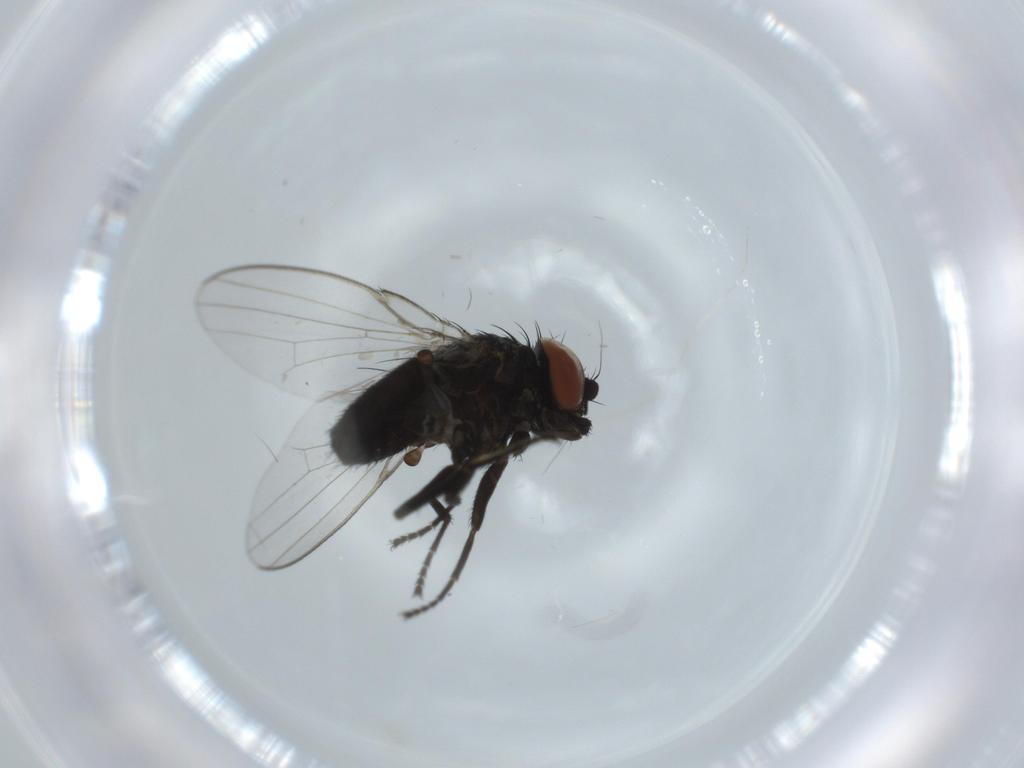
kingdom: Animalia
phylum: Arthropoda
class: Insecta
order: Diptera
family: Milichiidae
